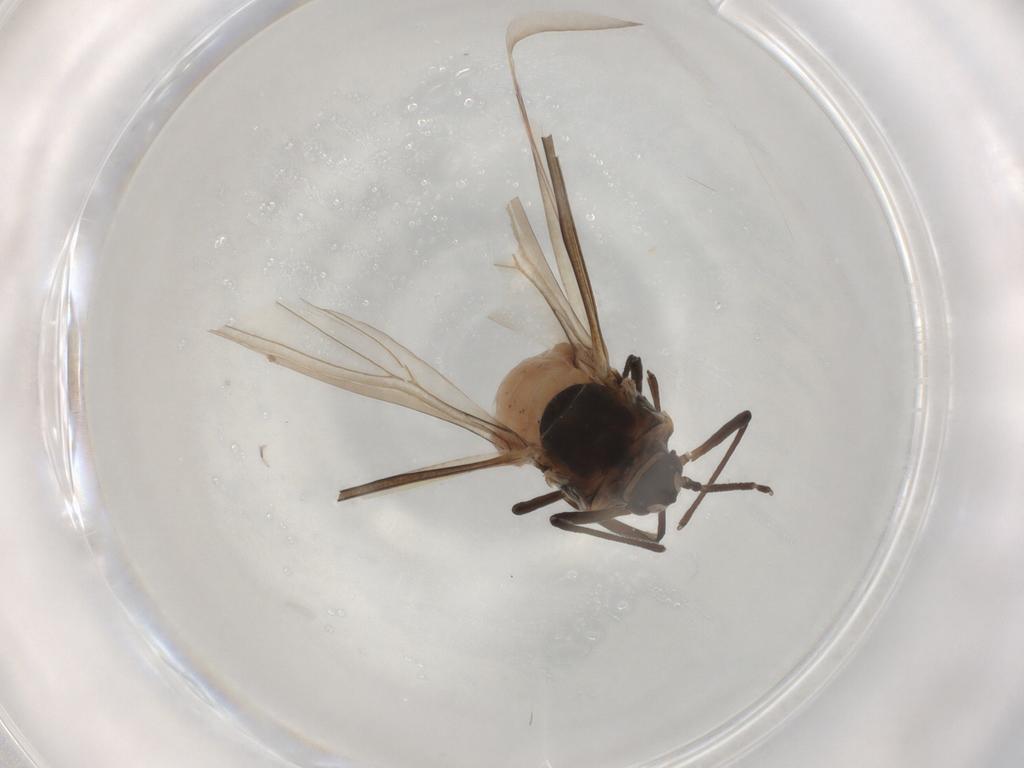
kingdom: Animalia
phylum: Arthropoda
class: Insecta
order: Hemiptera
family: Aphididae
